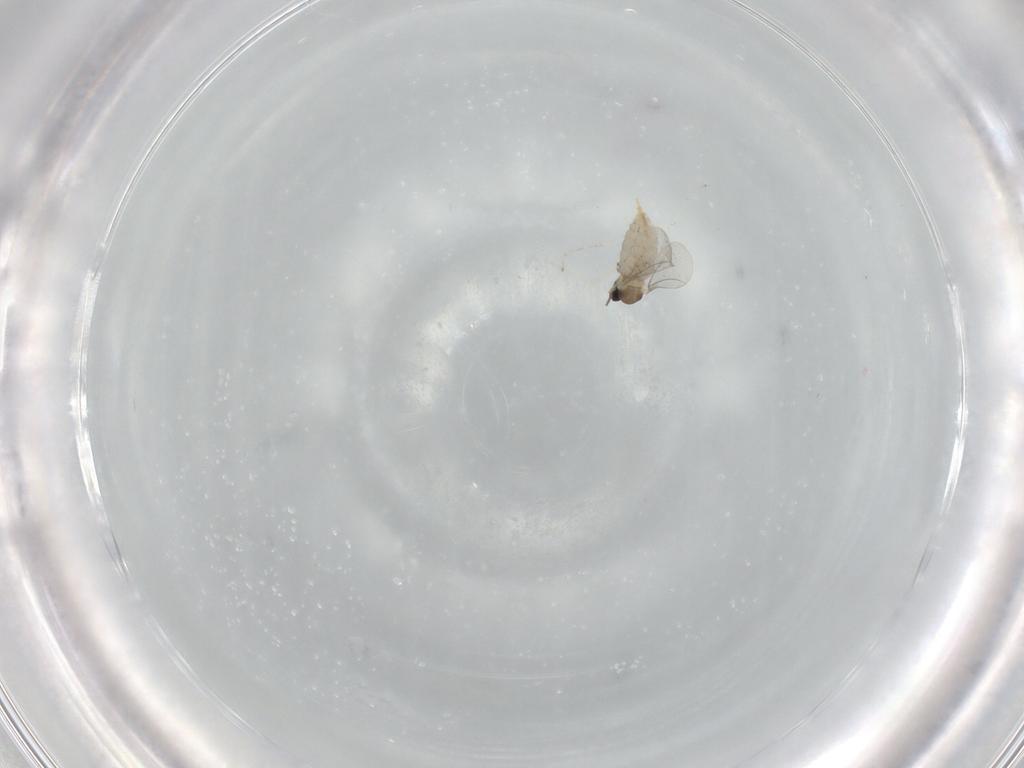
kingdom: Animalia
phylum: Arthropoda
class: Insecta
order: Diptera
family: Cecidomyiidae
